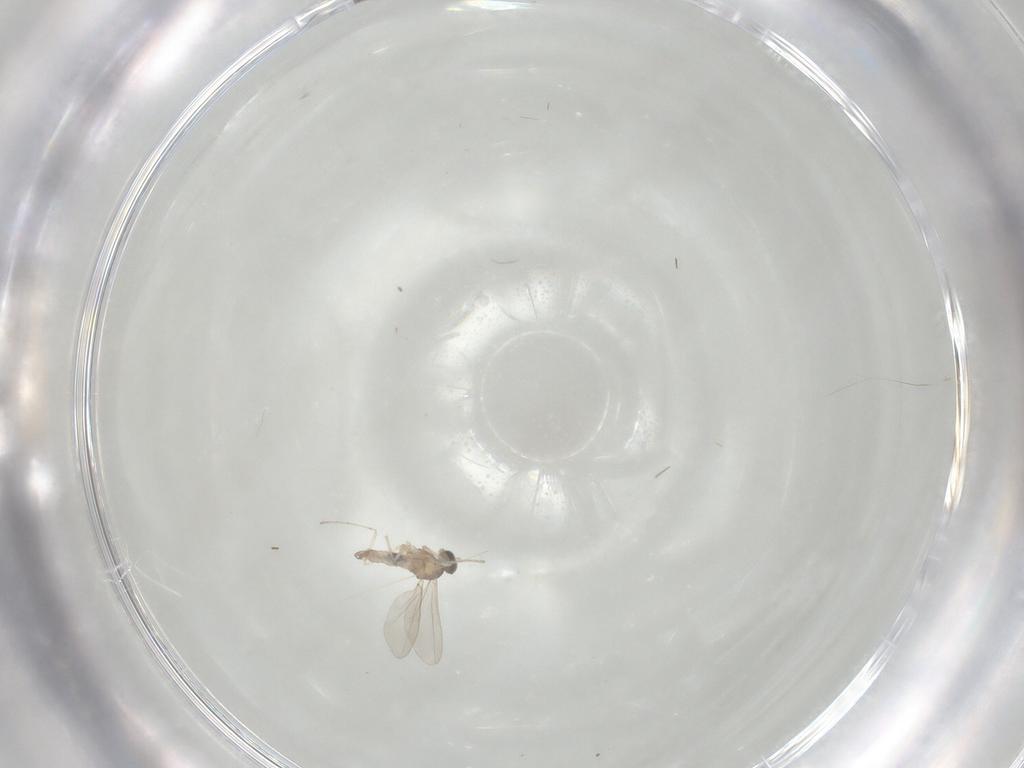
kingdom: Animalia
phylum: Arthropoda
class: Insecta
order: Diptera
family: Cecidomyiidae
